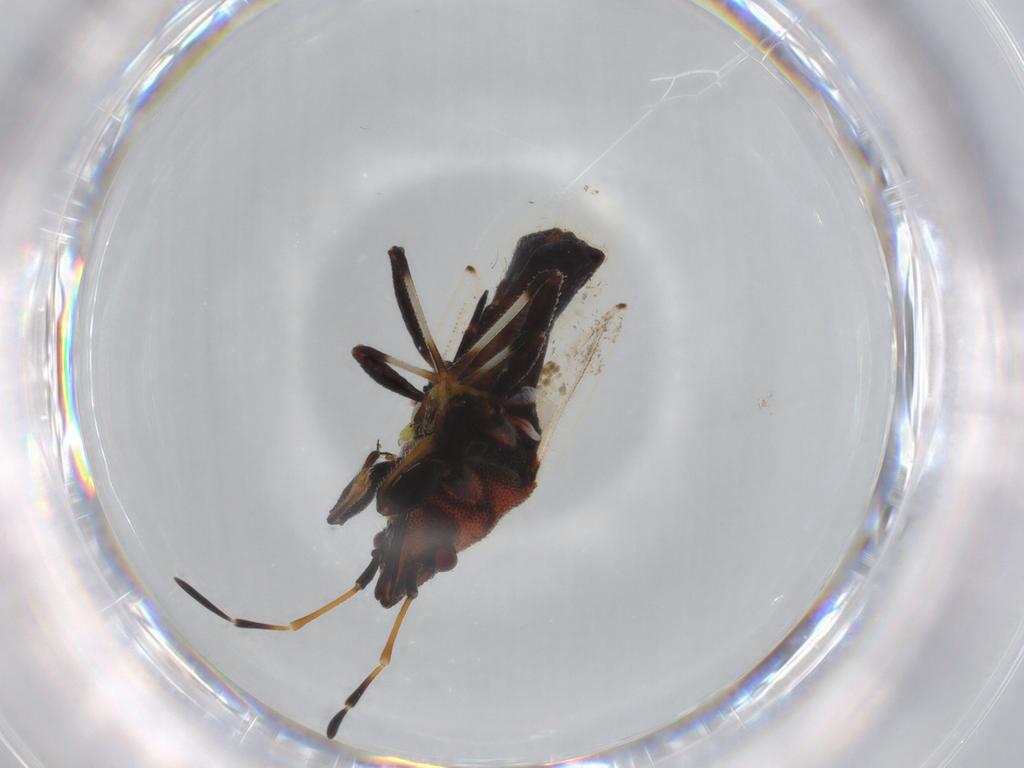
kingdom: Animalia
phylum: Arthropoda
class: Insecta
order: Hemiptera
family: Oxycarenidae
